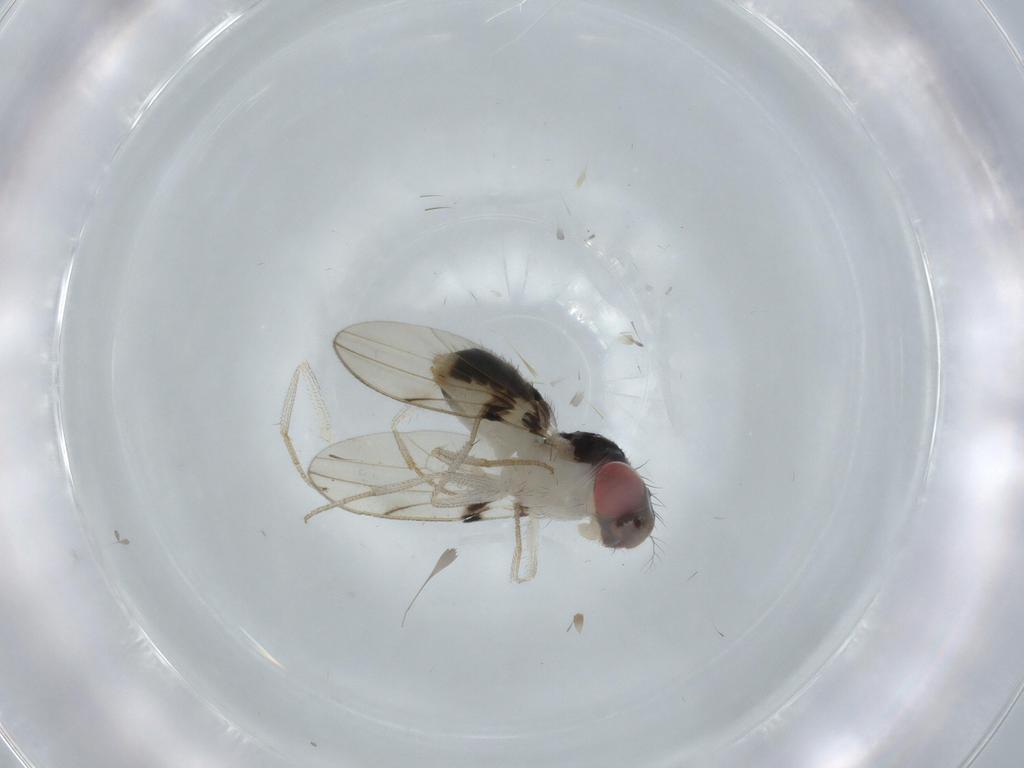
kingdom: Animalia
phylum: Arthropoda
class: Insecta
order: Diptera
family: Drosophilidae
